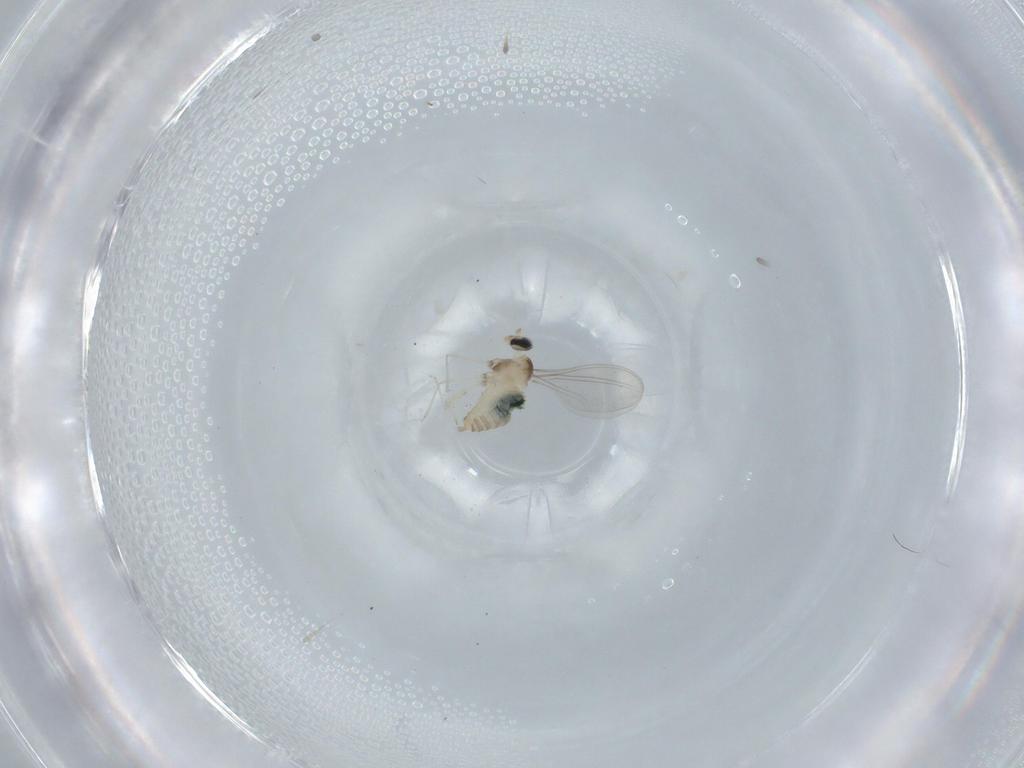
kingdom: Animalia
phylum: Arthropoda
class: Insecta
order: Diptera
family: Cecidomyiidae
